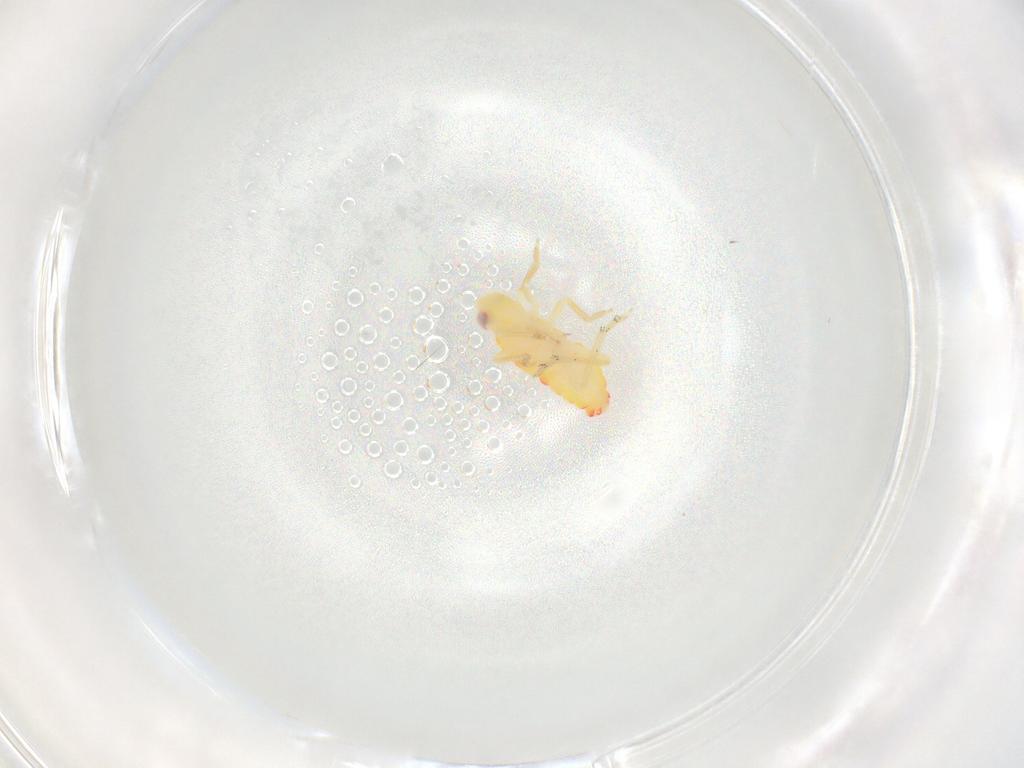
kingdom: Animalia
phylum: Arthropoda
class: Insecta
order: Hemiptera
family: Tropiduchidae
